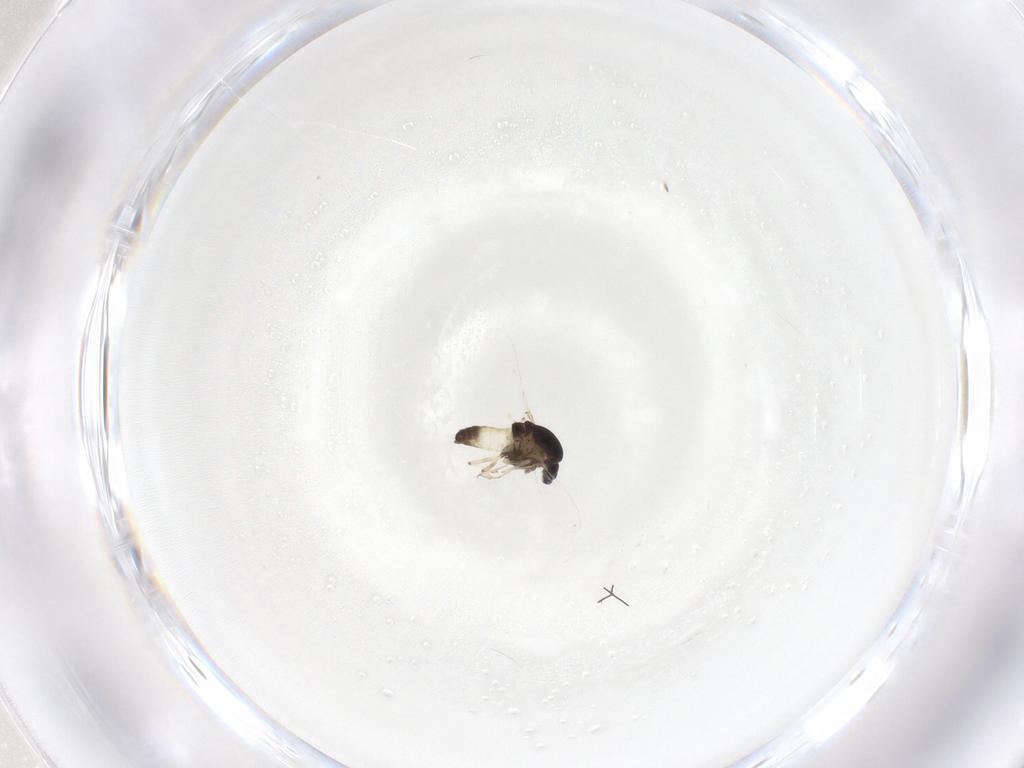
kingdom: Animalia
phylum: Arthropoda
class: Insecta
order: Diptera
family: Chironomidae
